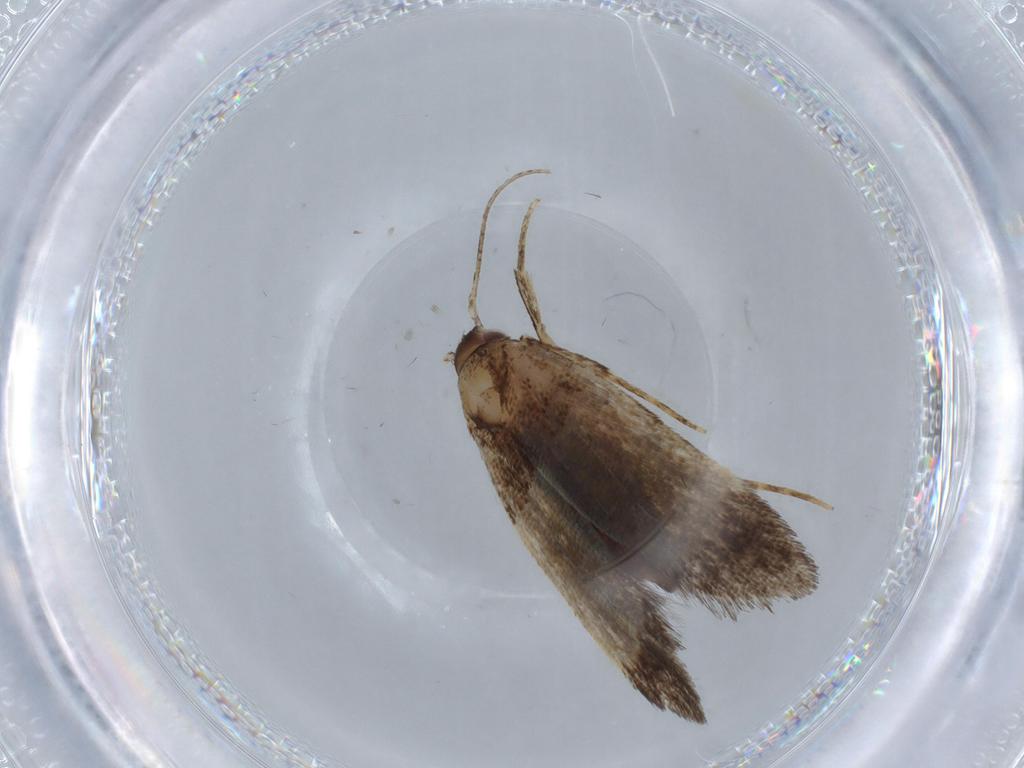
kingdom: Animalia
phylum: Arthropoda
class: Insecta
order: Lepidoptera
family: Cosmopterigidae
